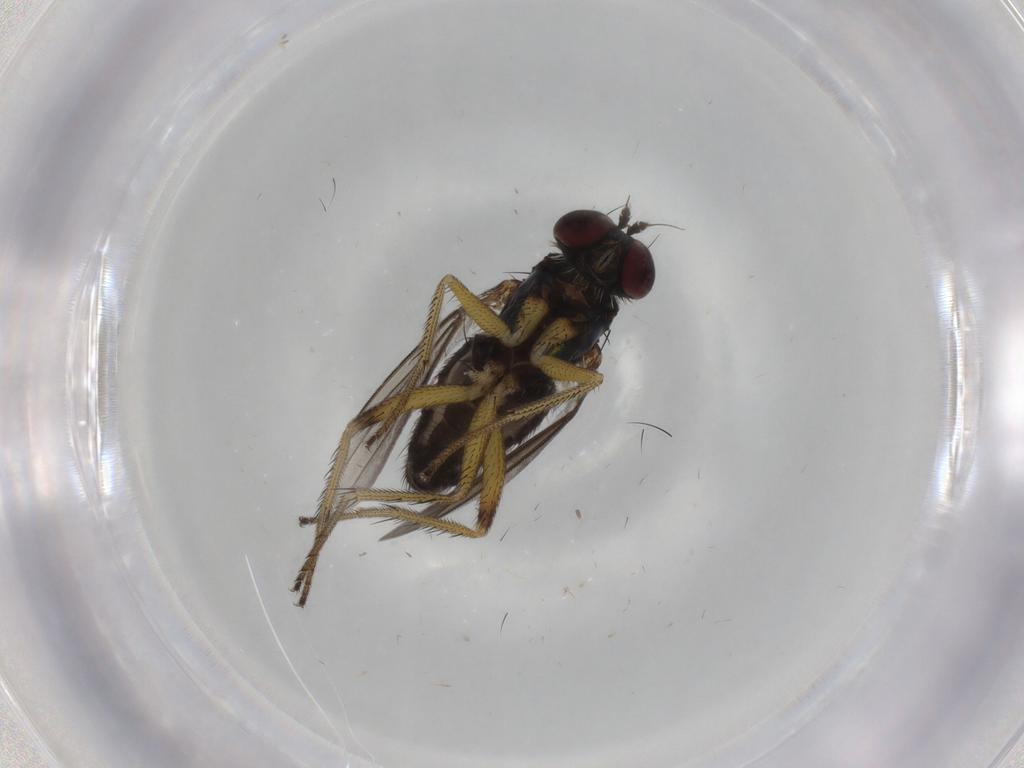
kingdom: Animalia
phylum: Arthropoda
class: Insecta
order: Diptera
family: Dolichopodidae
